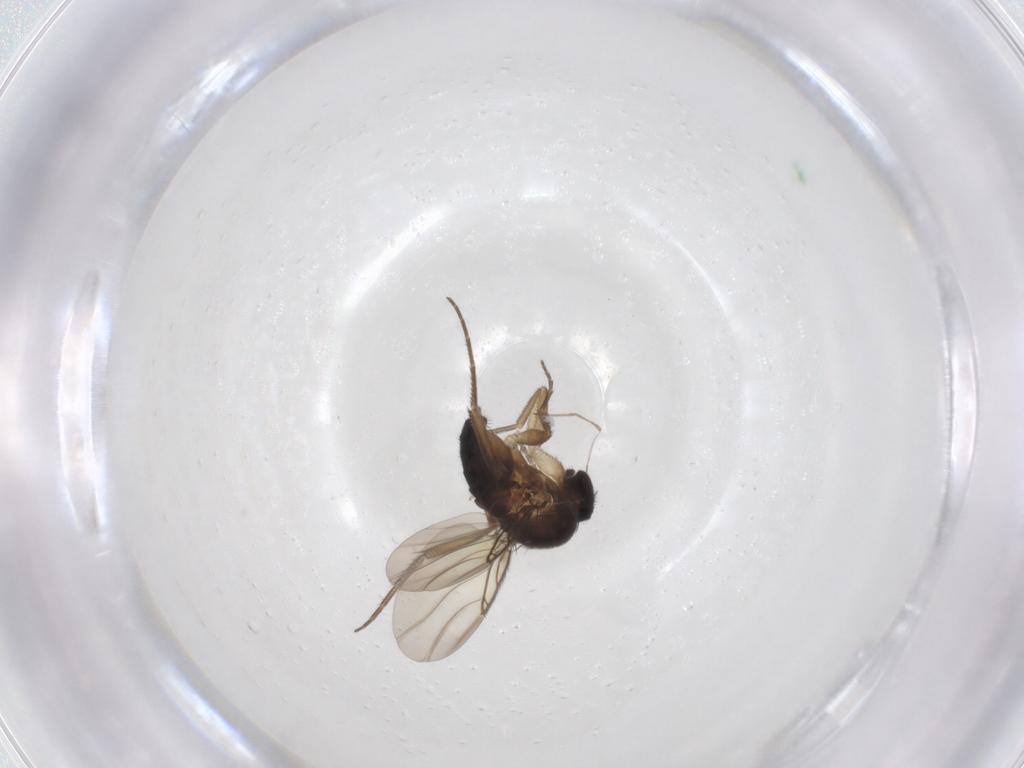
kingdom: Animalia
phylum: Arthropoda
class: Insecta
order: Diptera
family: Phoridae
